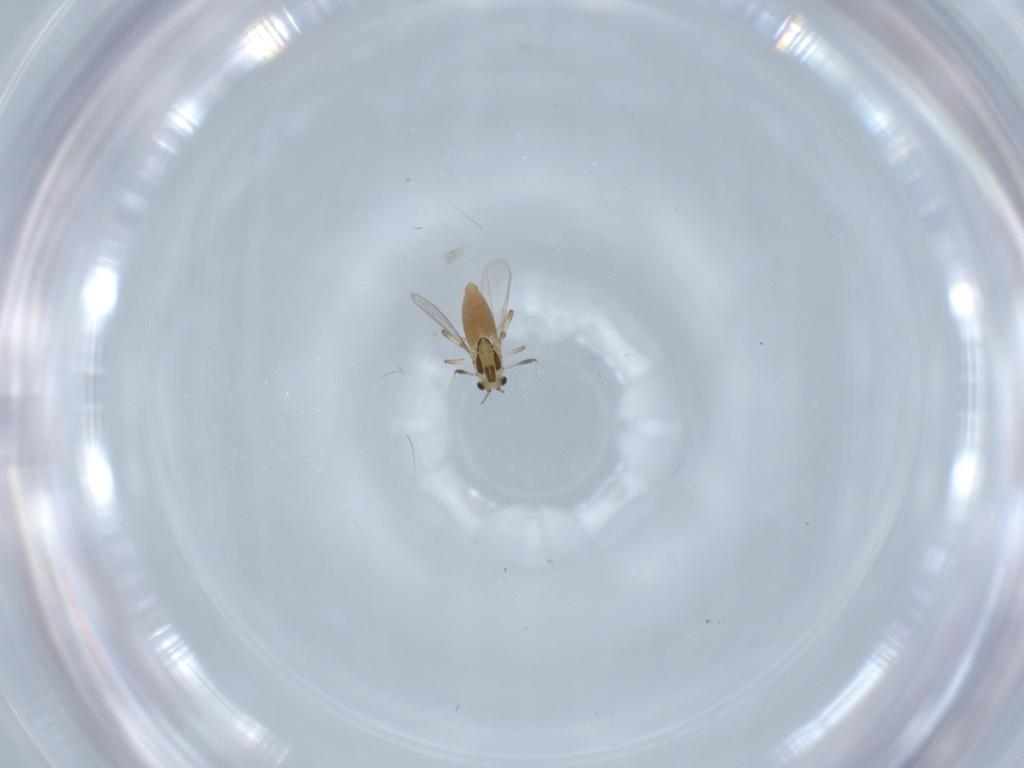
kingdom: Animalia
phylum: Arthropoda
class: Insecta
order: Diptera
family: Chironomidae
